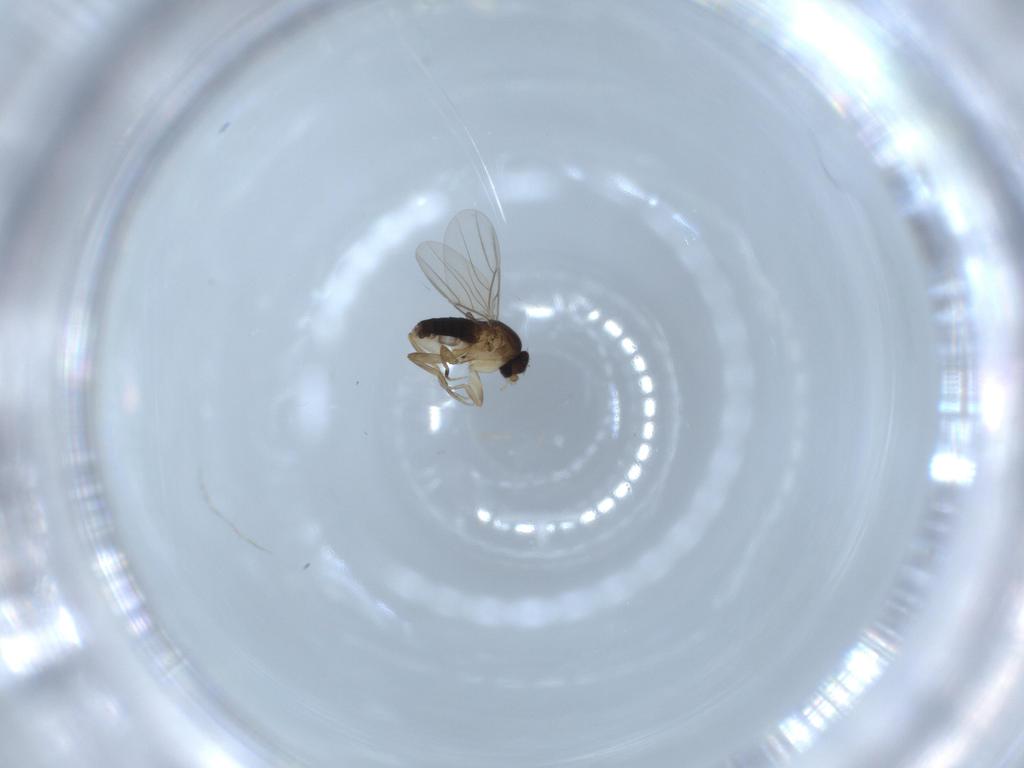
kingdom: Animalia
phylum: Arthropoda
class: Insecta
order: Diptera
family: Phoridae
